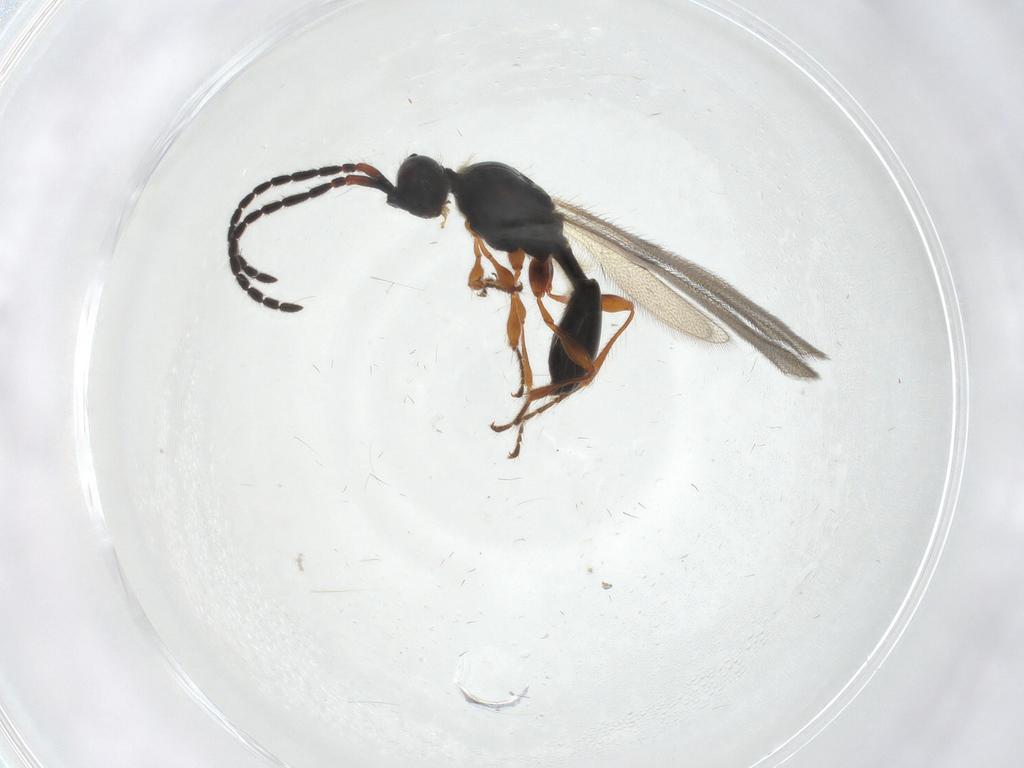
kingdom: Animalia
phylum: Arthropoda
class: Insecta
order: Hymenoptera
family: Diapriidae
